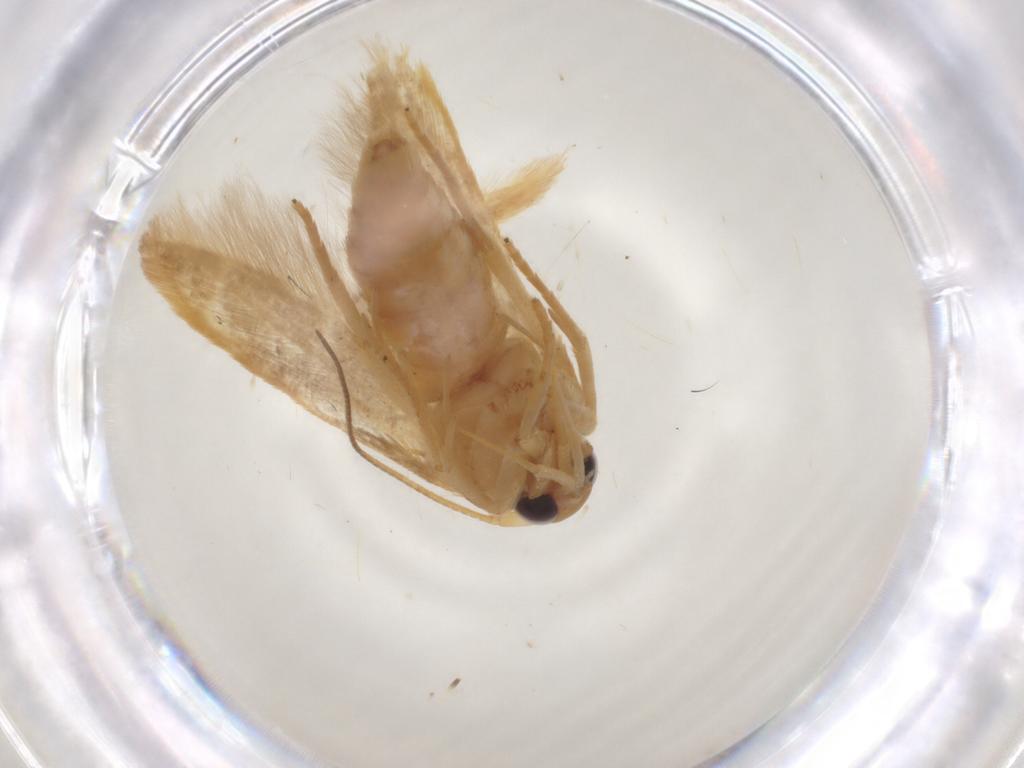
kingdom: Animalia
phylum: Arthropoda
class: Insecta
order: Lepidoptera
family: Stathmopodidae
